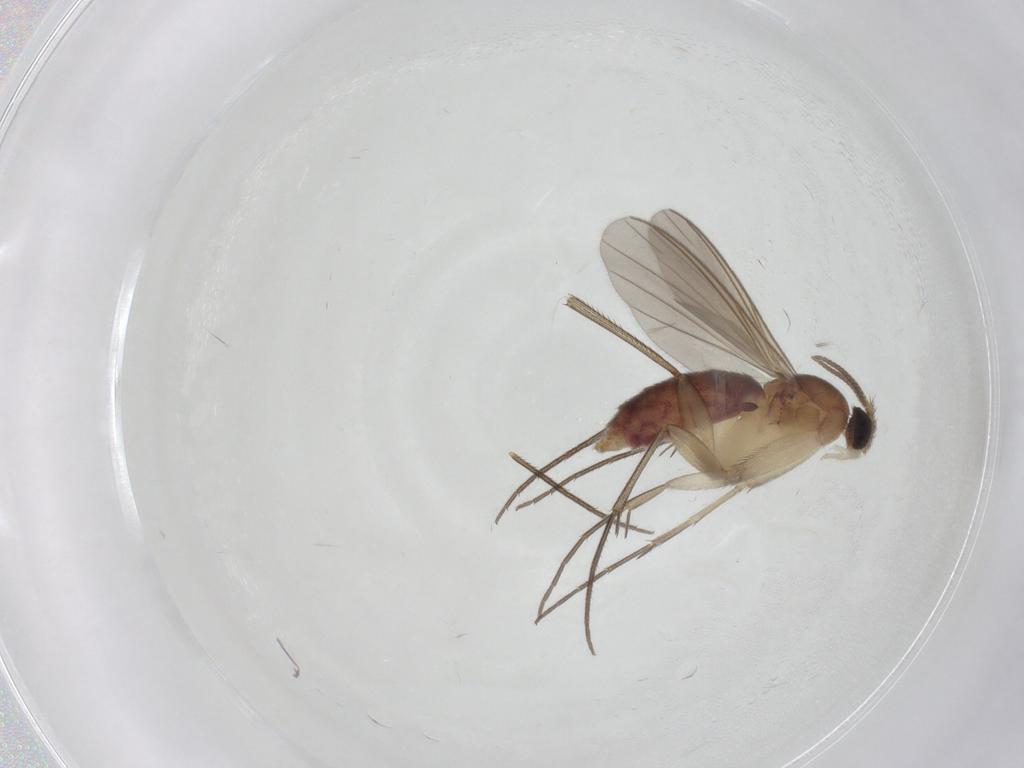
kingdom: Animalia
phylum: Arthropoda
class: Insecta
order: Diptera
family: Mycetophilidae
